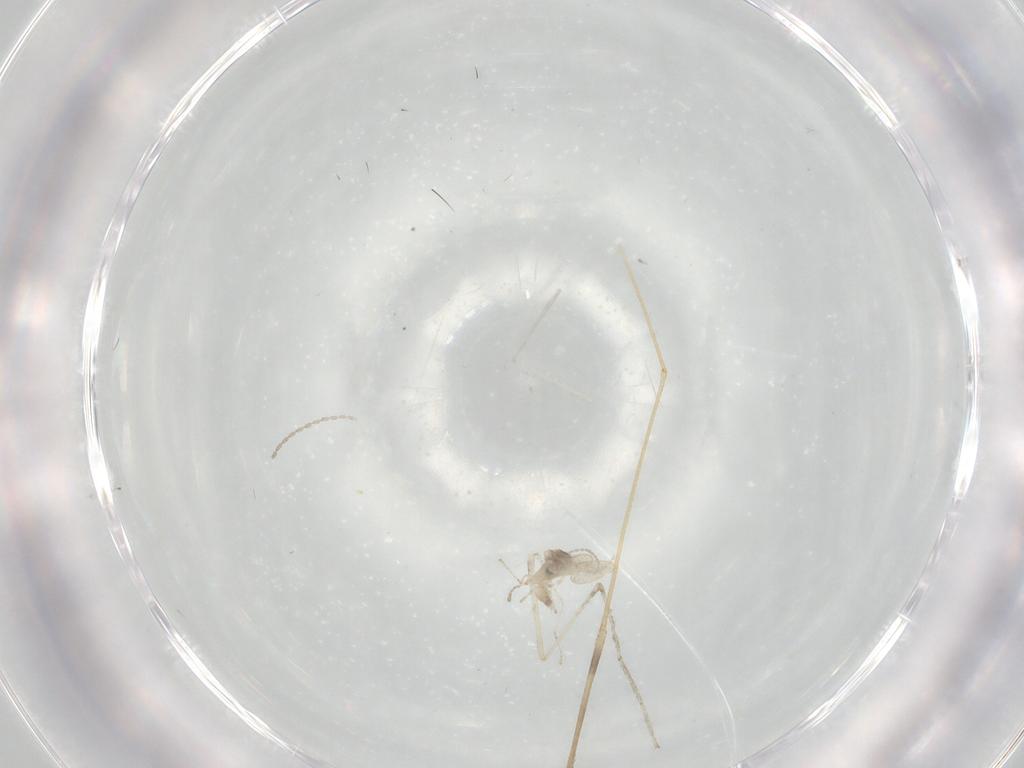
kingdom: Animalia
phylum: Arthropoda
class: Insecta
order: Diptera
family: Cecidomyiidae
